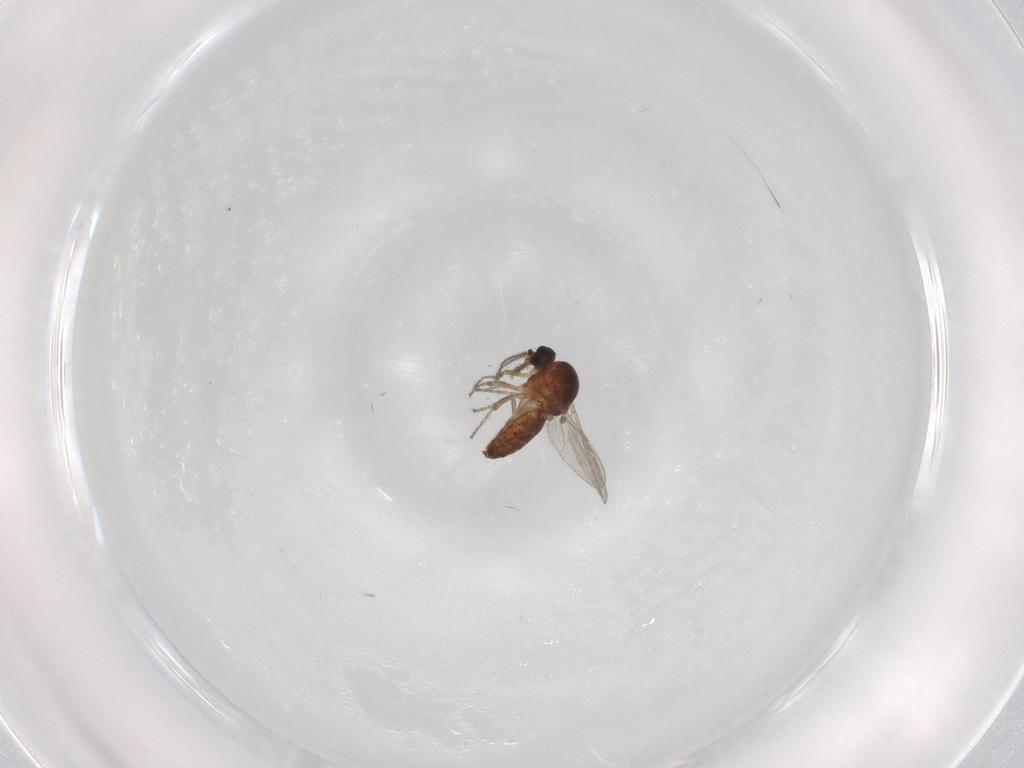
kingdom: Animalia
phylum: Arthropoda
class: Insecta
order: Diptera
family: Ceratopogonidae
